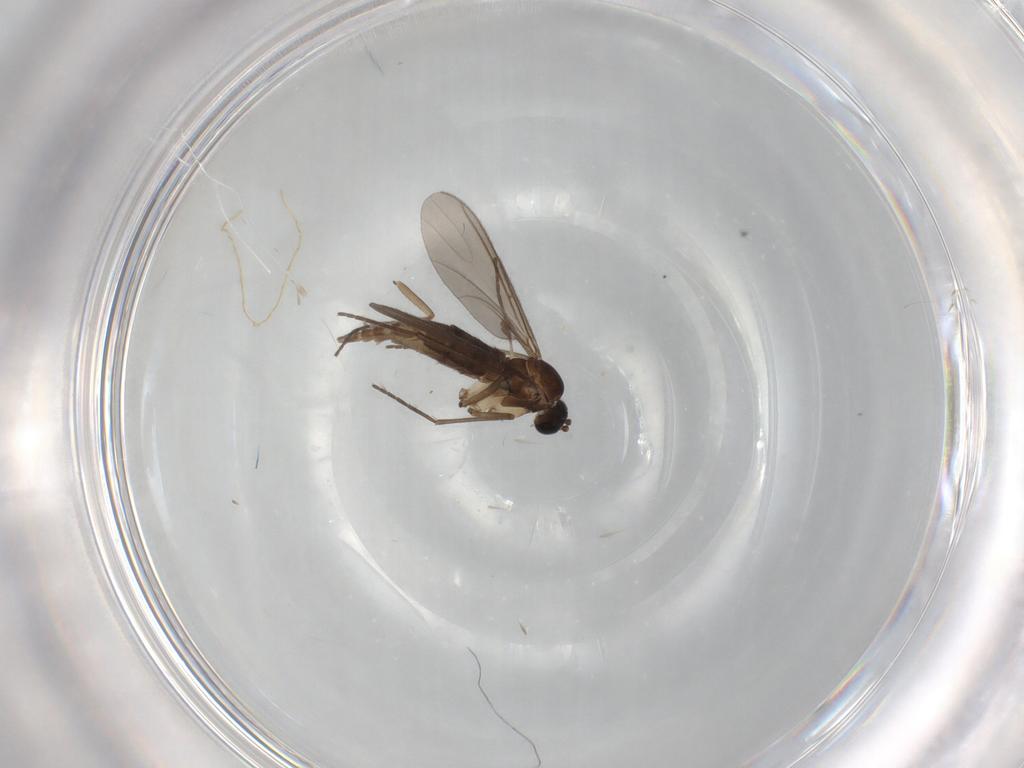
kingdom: Animalia
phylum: Arthropoda
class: Insecta
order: Diptera
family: Sciaridae
